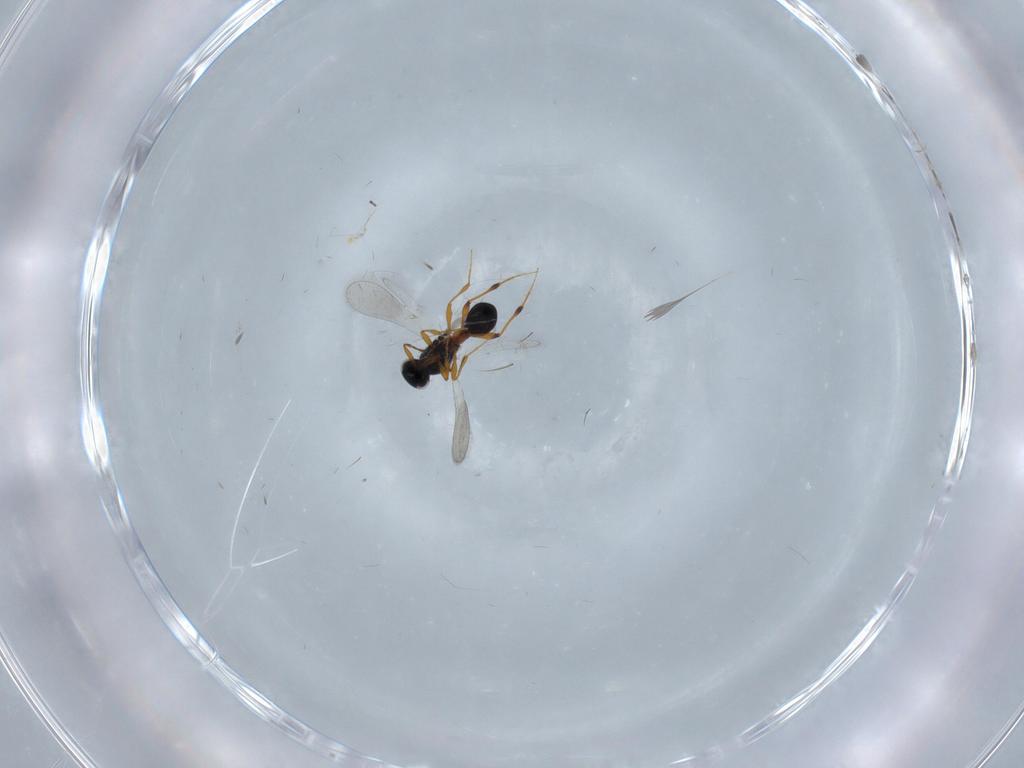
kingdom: Animalia
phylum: Arthropoda
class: Insecta
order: Hymenoptera
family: Platygastridae
